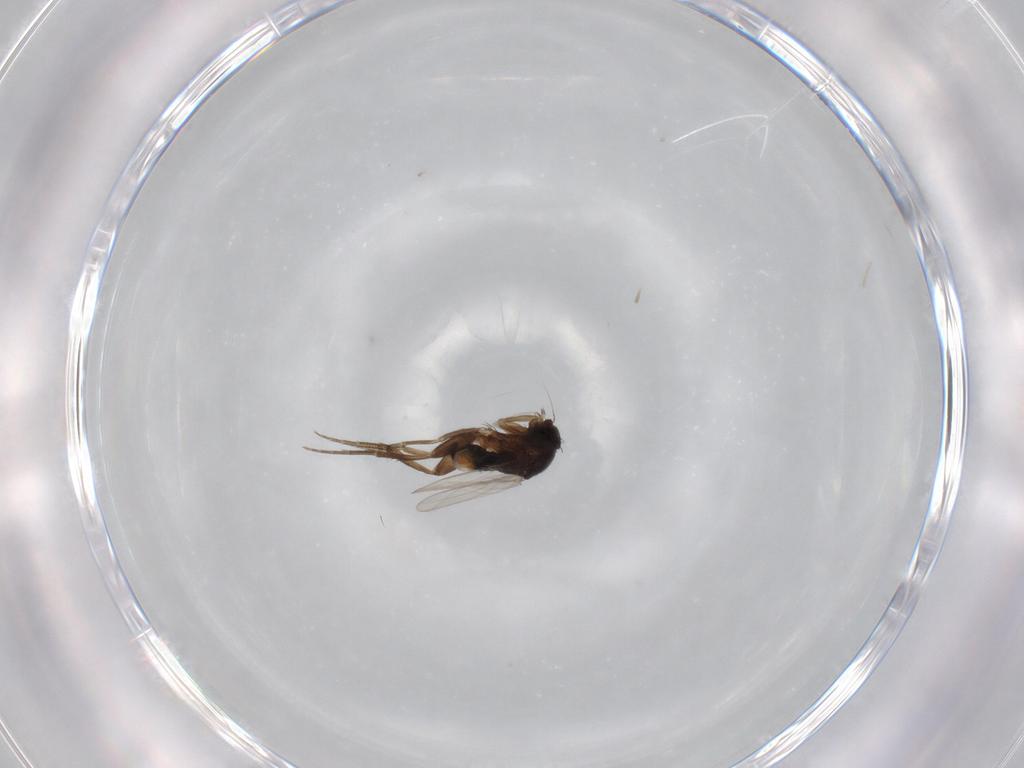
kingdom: Animalia
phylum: Arthropoda
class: Insecta
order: Diptera
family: Phoridae
